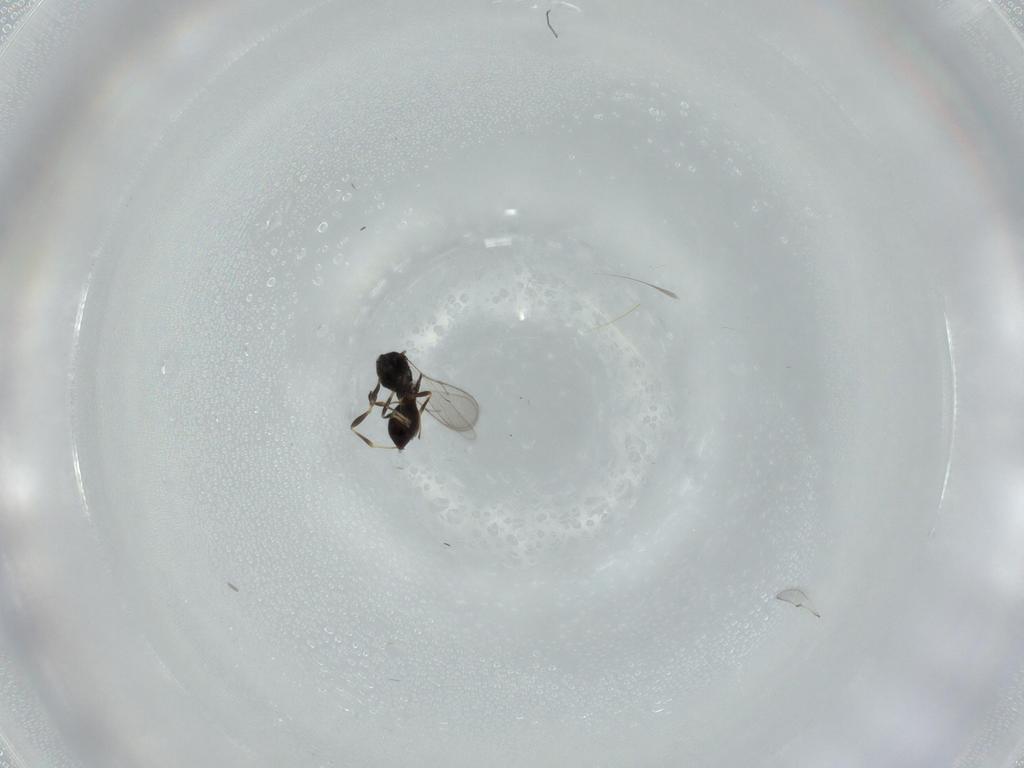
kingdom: Animalia
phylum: Arthropoda
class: Insecta
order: Hymenoptera
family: Scelionidae
